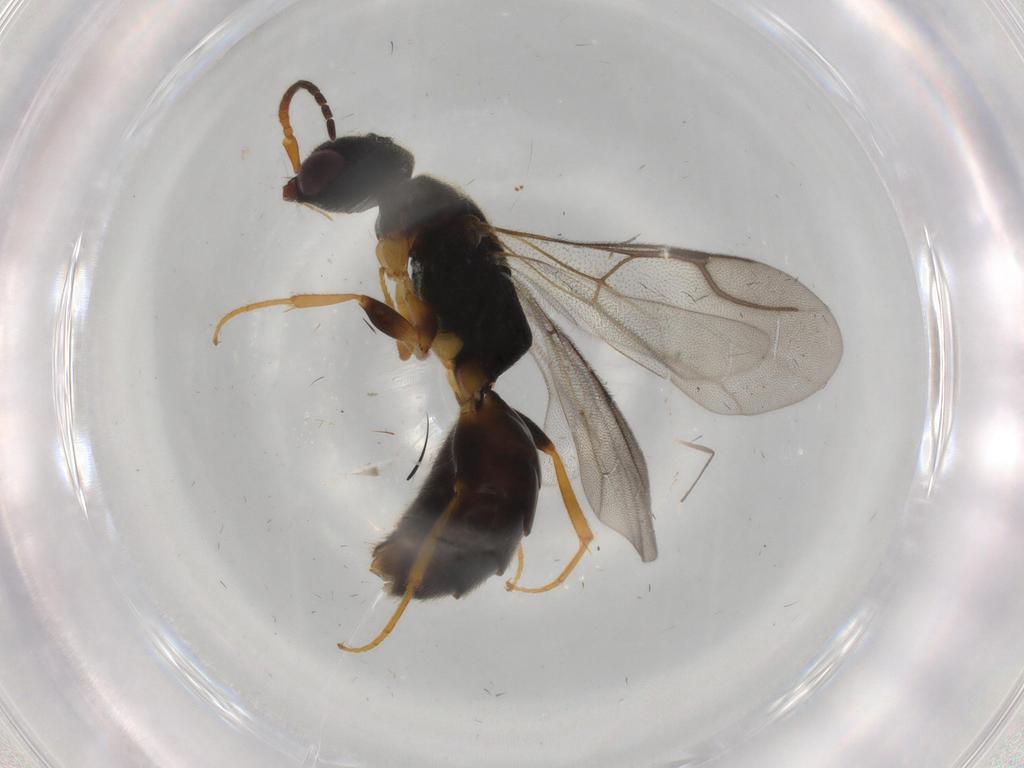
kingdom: Animalia
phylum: Arthropoda
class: Insecta
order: Hymenoptera
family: Bethylidae
